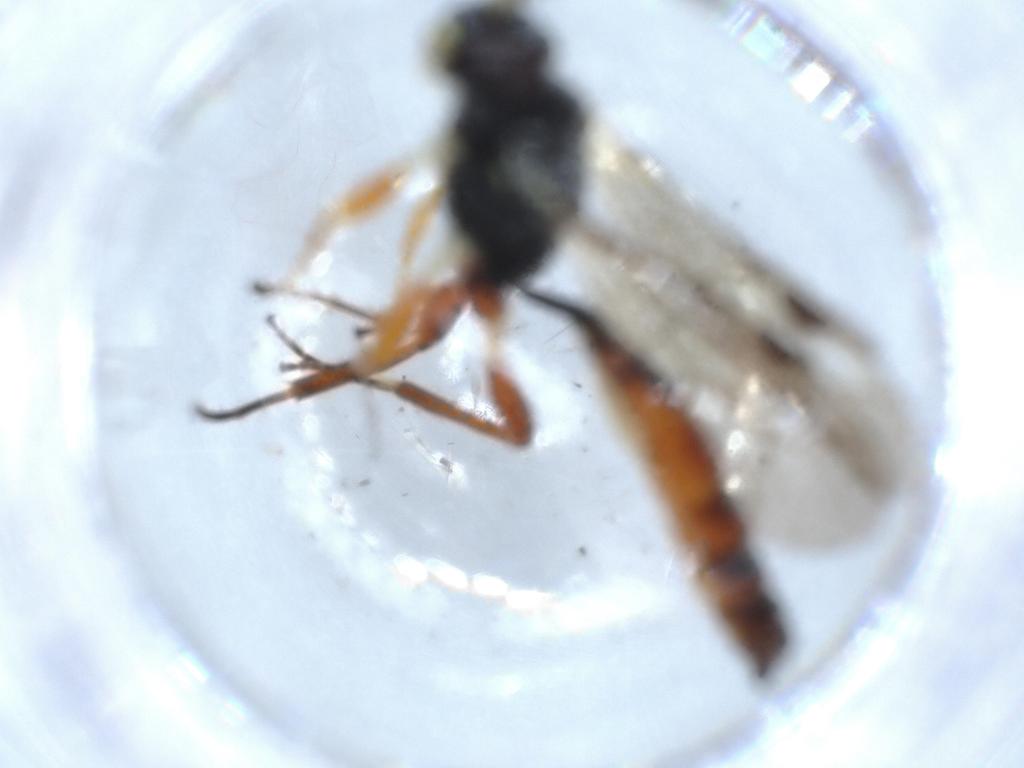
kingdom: Animalia
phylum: Arthropoda
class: Insecta
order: Hymenoptera
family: Ichneumonidae
